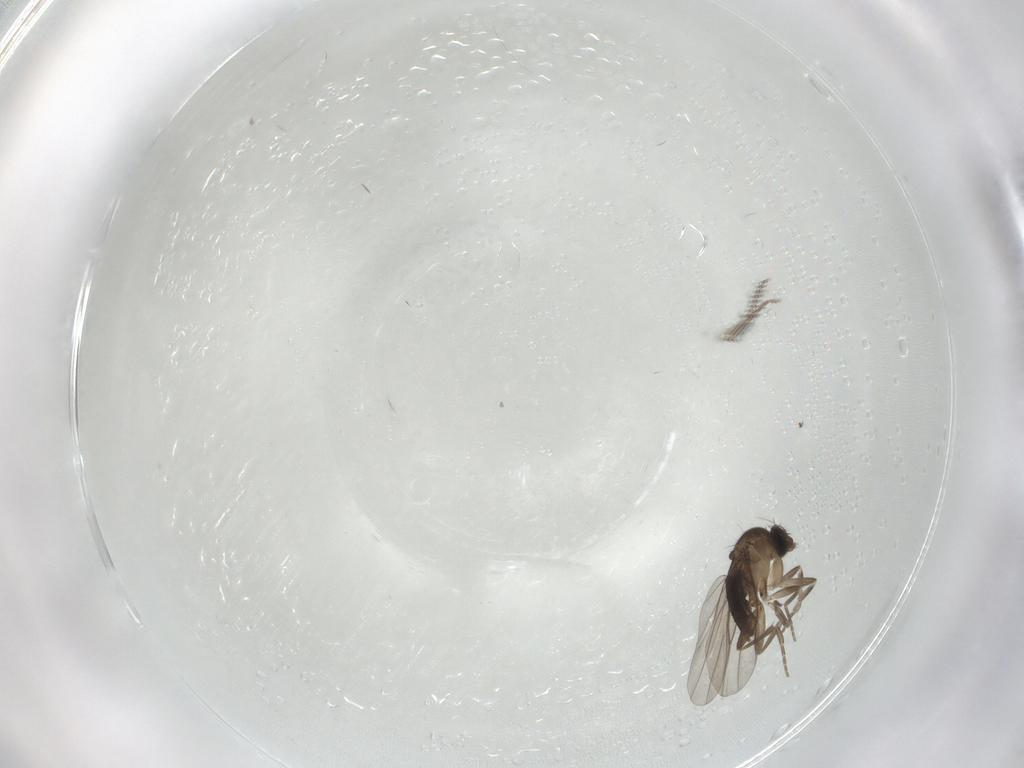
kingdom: Animalia
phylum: Arthropoda
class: Insecta
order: Diptera
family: Phoridae
